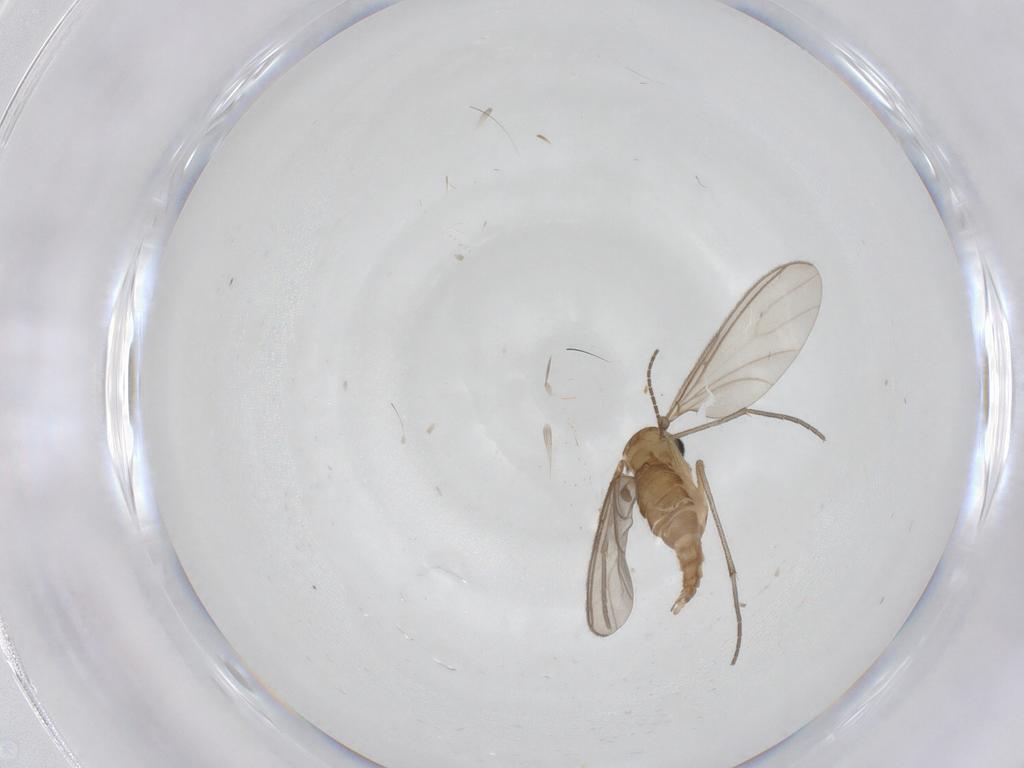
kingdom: Animalia
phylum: Arthropoda
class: Insecta
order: Diptera
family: Sciaridae
